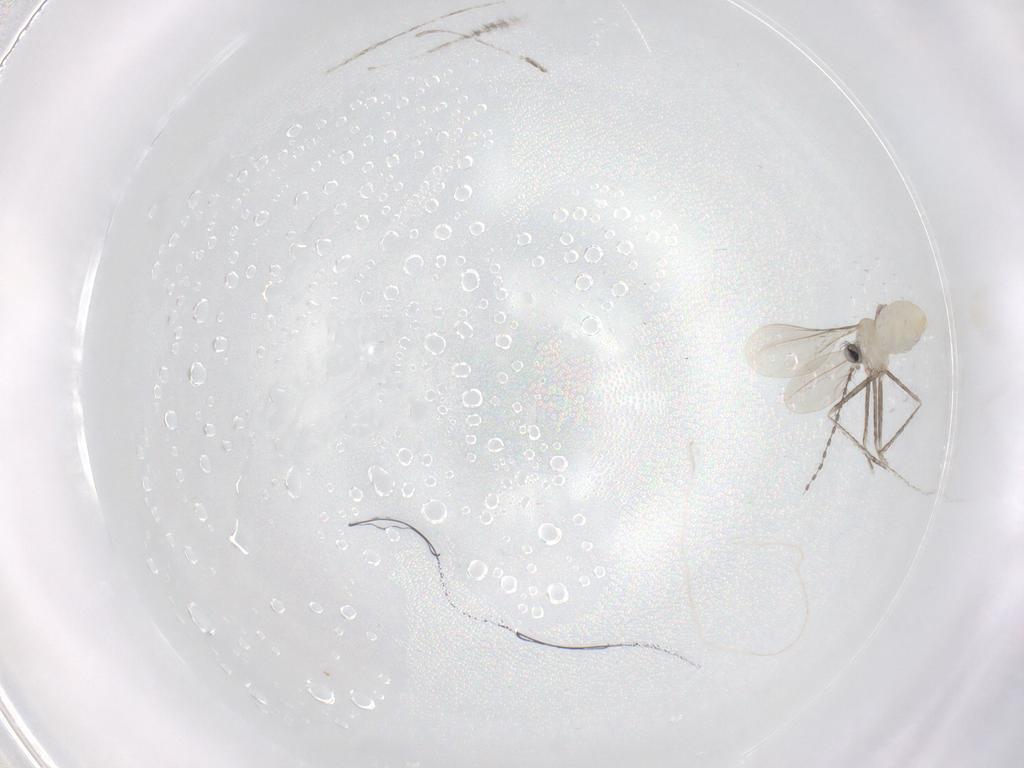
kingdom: Animalia
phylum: Arthropoda
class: Insecta
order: Diptera
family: Cecidomyiidae
